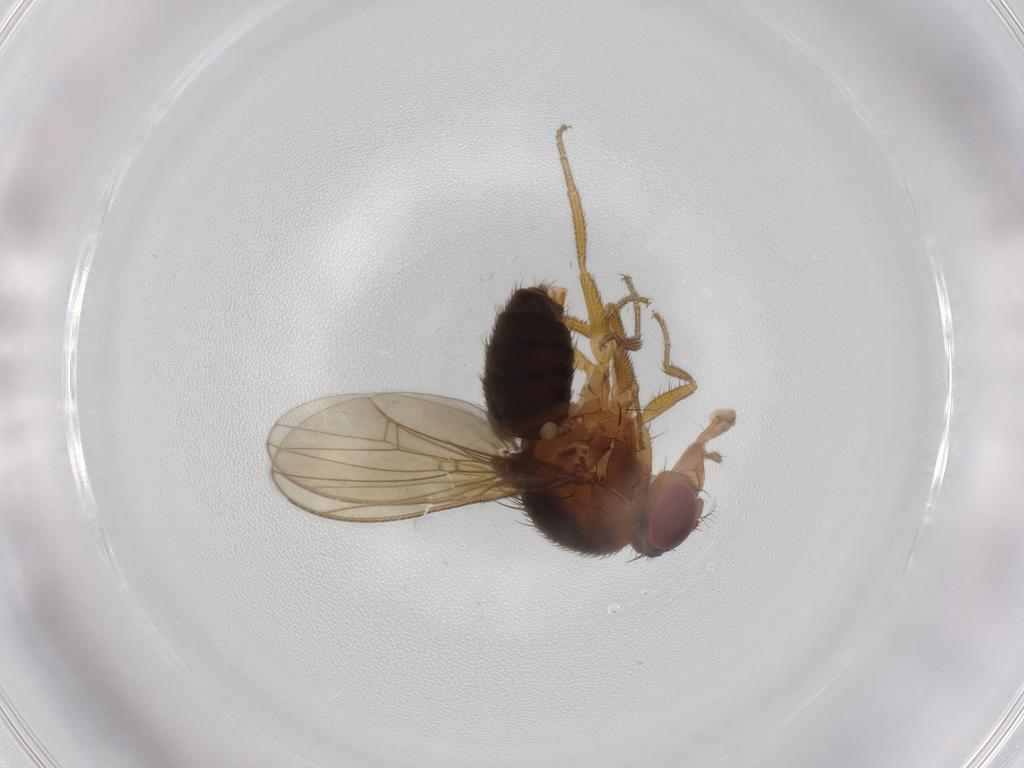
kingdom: Animalia
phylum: Arthropoda
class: Insecta
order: Diptera
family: Drosophilidae
